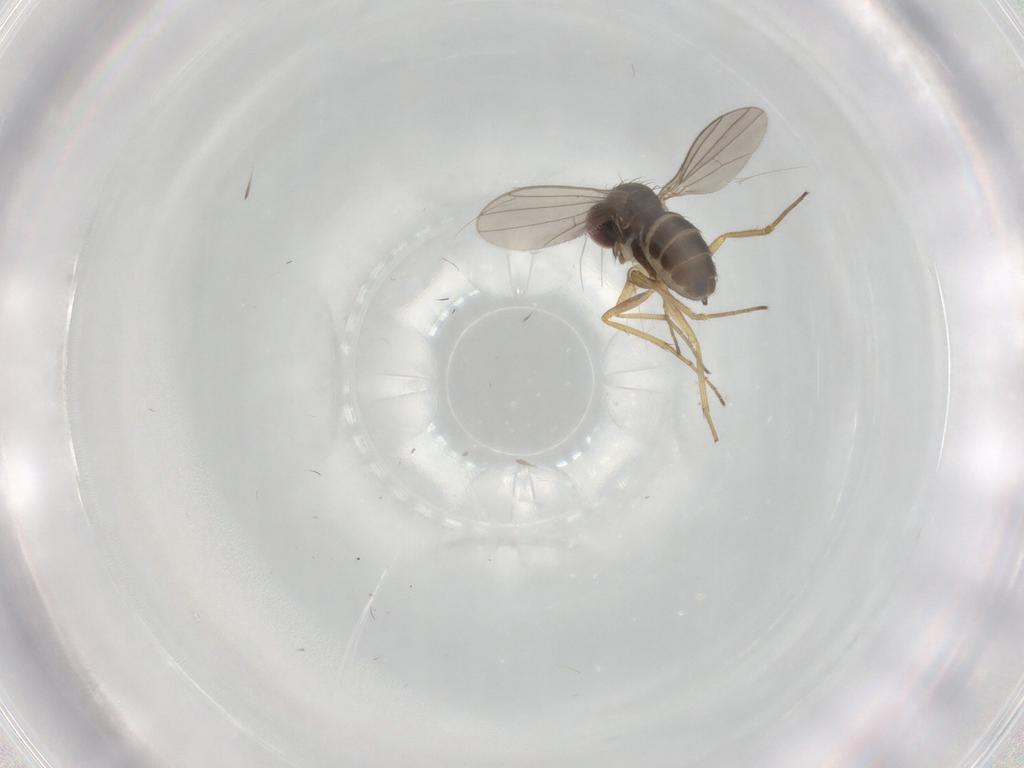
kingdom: Animalia
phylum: Arthropoda
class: Insecta
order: Diptera
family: Dolichopodidae
